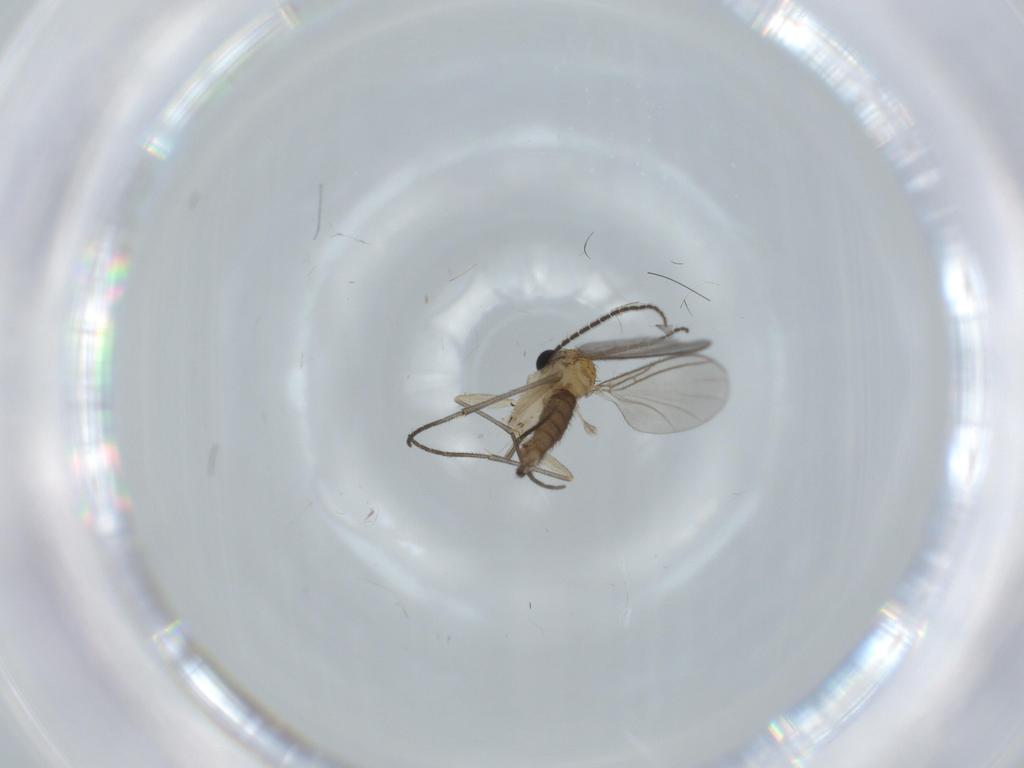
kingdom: Animalia
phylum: Arthropoda
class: Insecta
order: Diptera
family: Sciaridae
